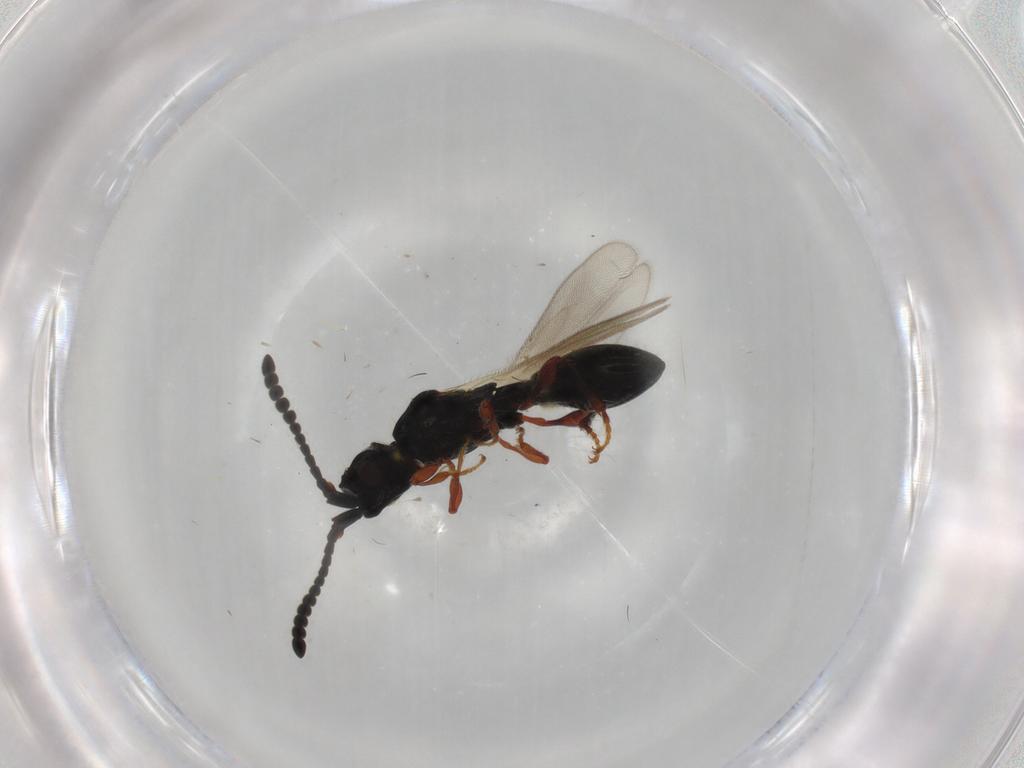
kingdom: Animalia
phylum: Arthropoda
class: Insecta
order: Hymenoptera
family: Diapriidae
